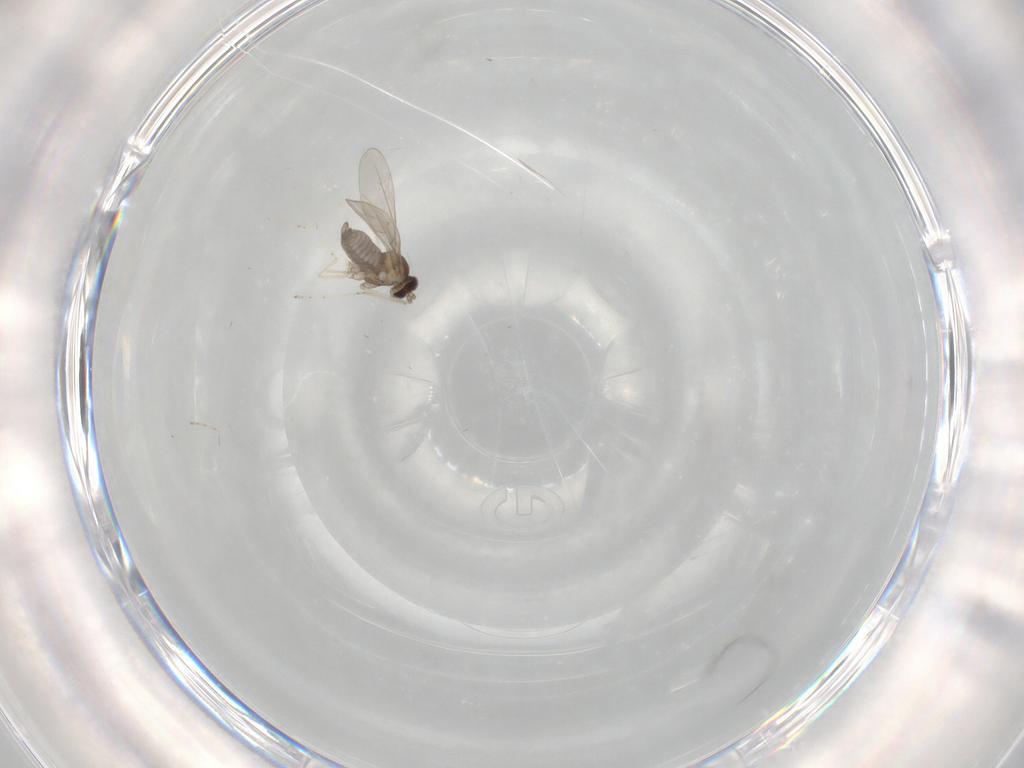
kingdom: Animalia
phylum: Arthropoda
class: Insecta
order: Diptera
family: Cecidomyiidae
